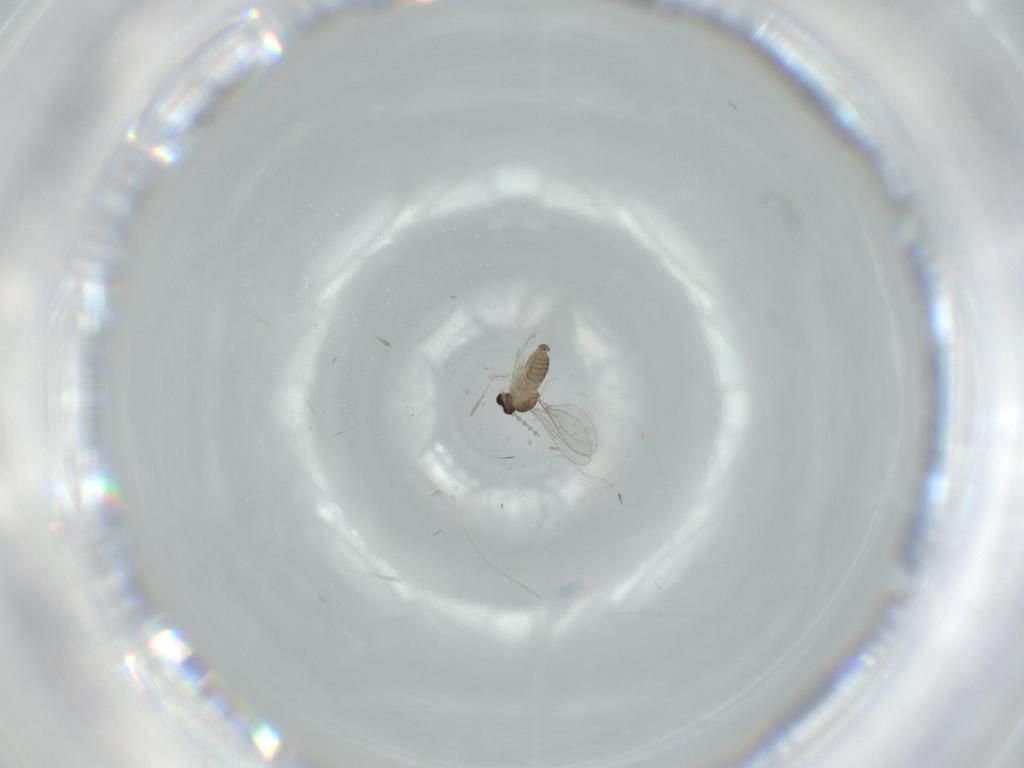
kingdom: Animalia
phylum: Arthropoda
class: Insecta
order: Diptera
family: Cecidomyiidae
